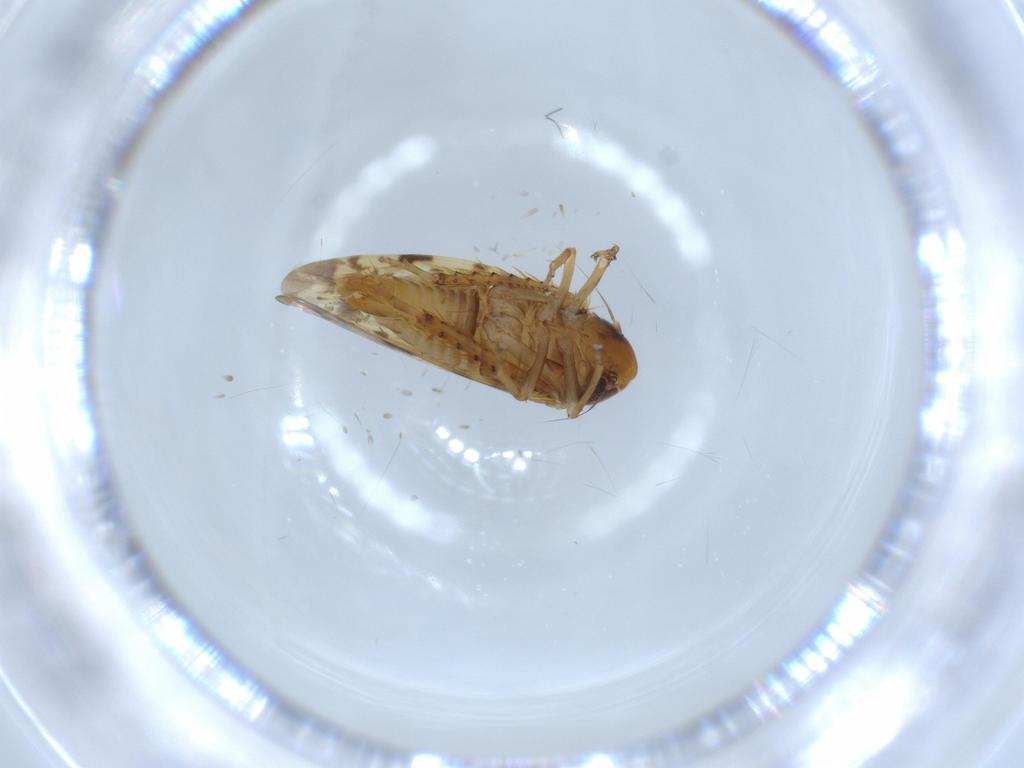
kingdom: Animalia
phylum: Arthropoda
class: Insecta
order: Hemiptera
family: Cicadellidae
